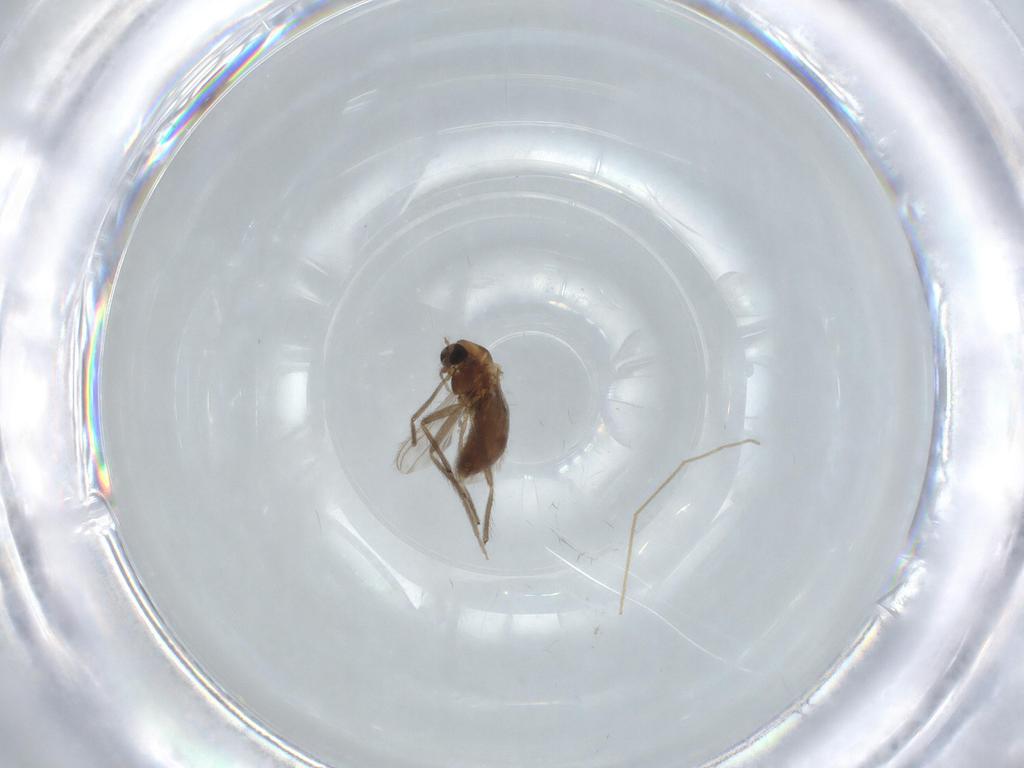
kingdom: Animalia
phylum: Arthropoda
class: Insecta
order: Diptera
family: Chironomidae
